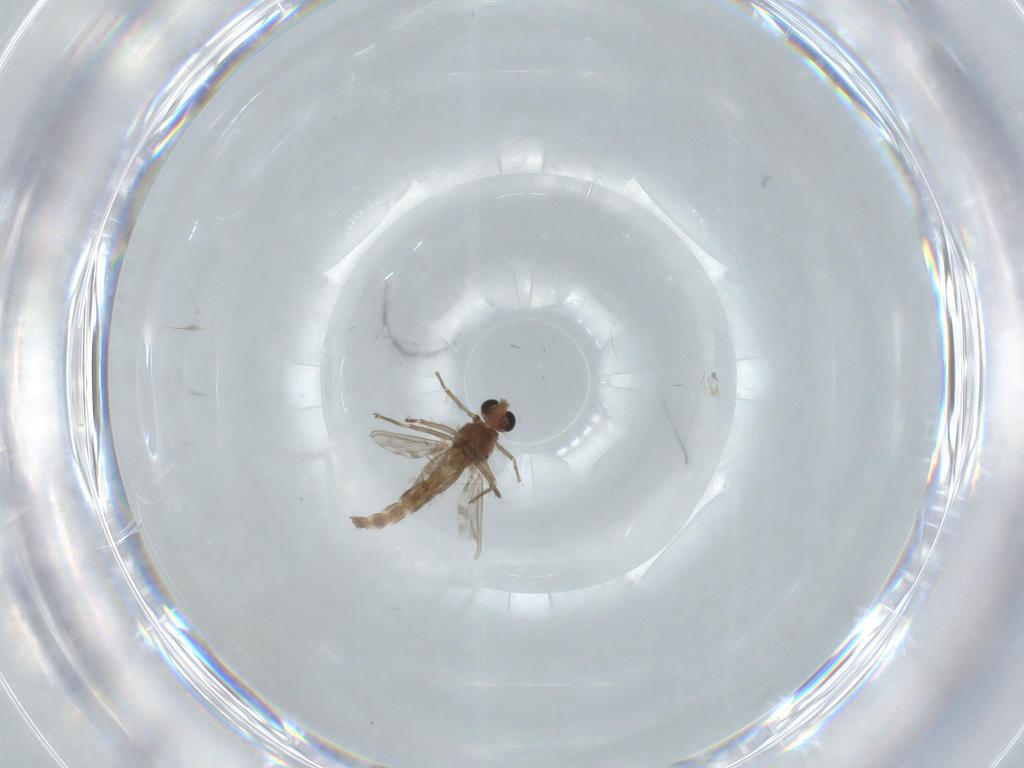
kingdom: Animalia
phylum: Arthropoda
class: Insecta
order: Diptera
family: Chironomidae
